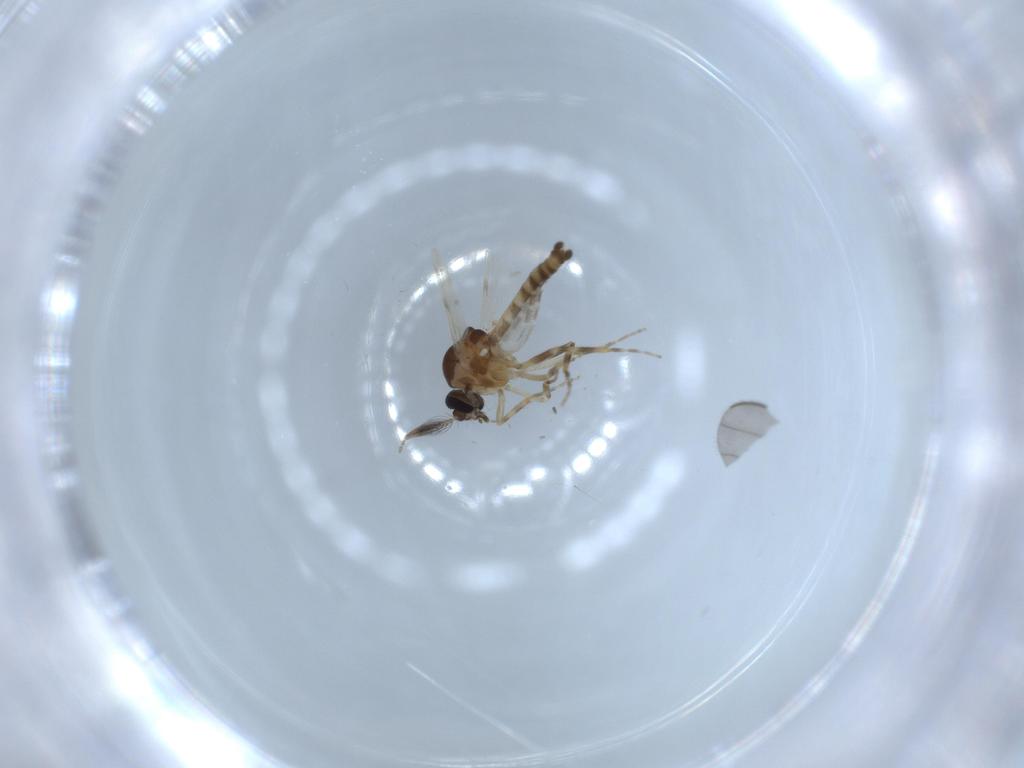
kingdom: Animalia
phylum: Arthropoda
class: Insecta
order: Diptera
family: Ceratopogonidae
